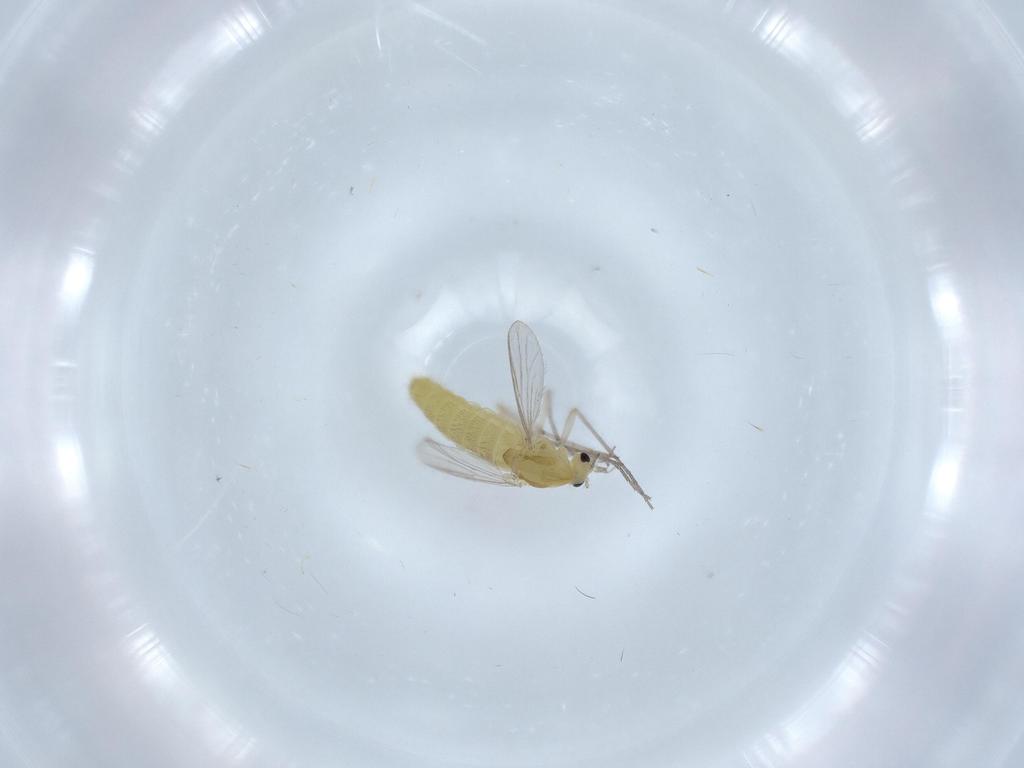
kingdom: Animalia
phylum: Arthropoda
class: Insecta
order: Diptera
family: Chironomidae
